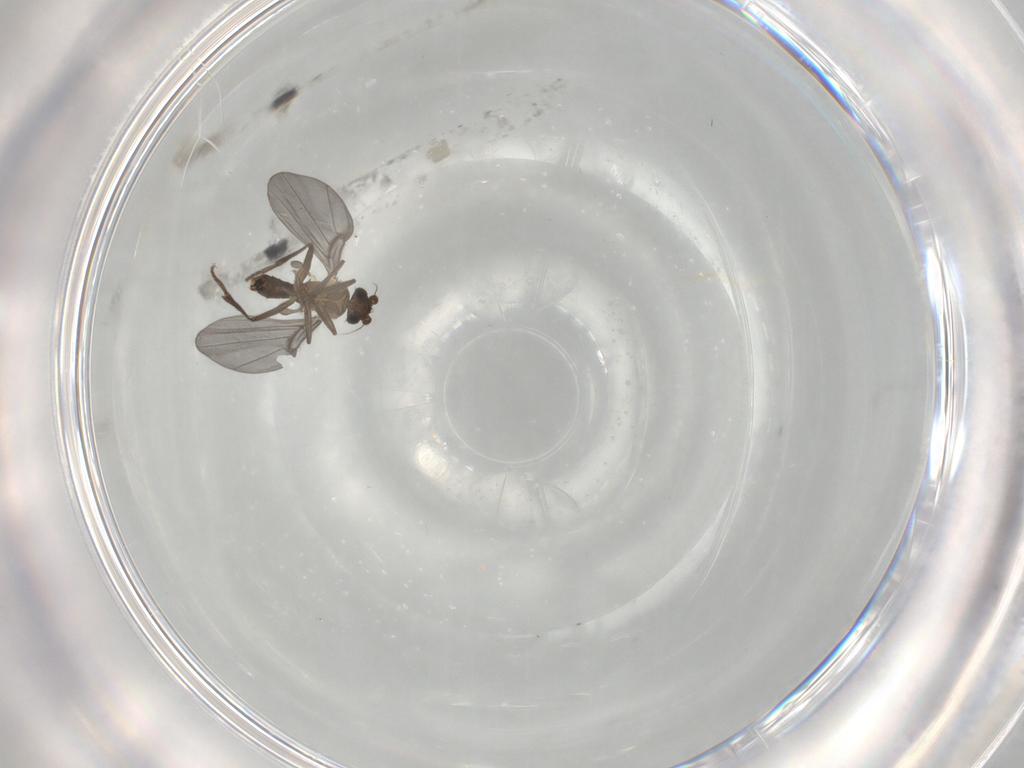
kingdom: Animalia
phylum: Arthropoda
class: Insecta
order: Diptera
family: Phoridae
